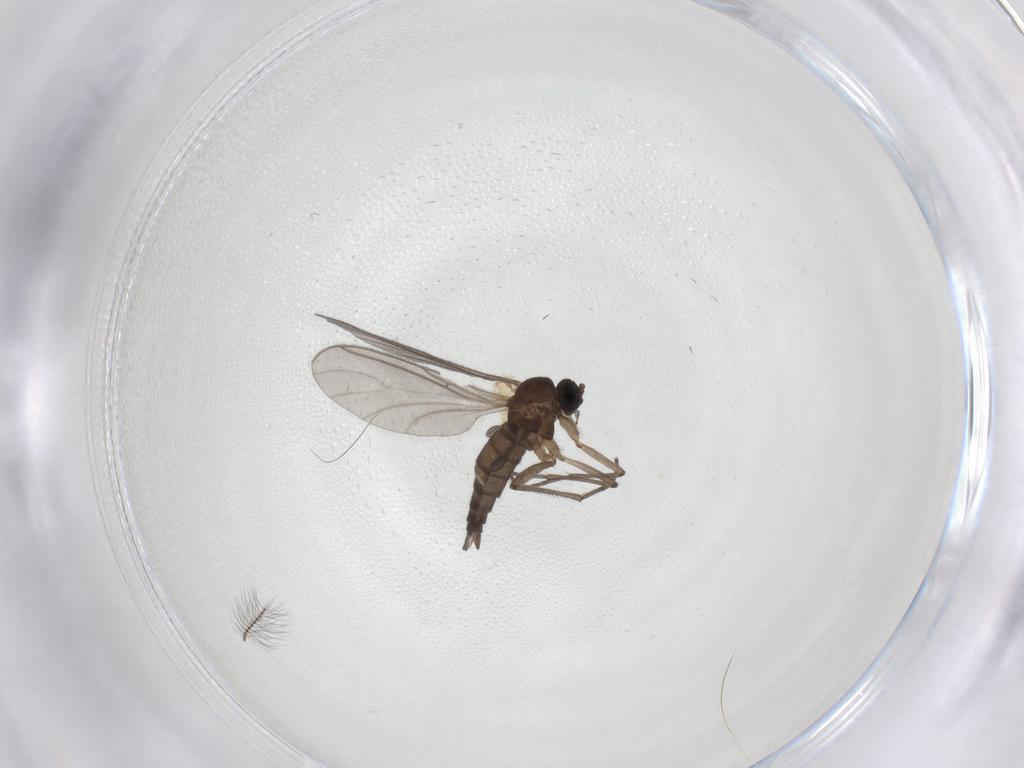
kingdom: Animalia
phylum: Arthropoda
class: Insecta
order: Diptera
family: Sciaridae
